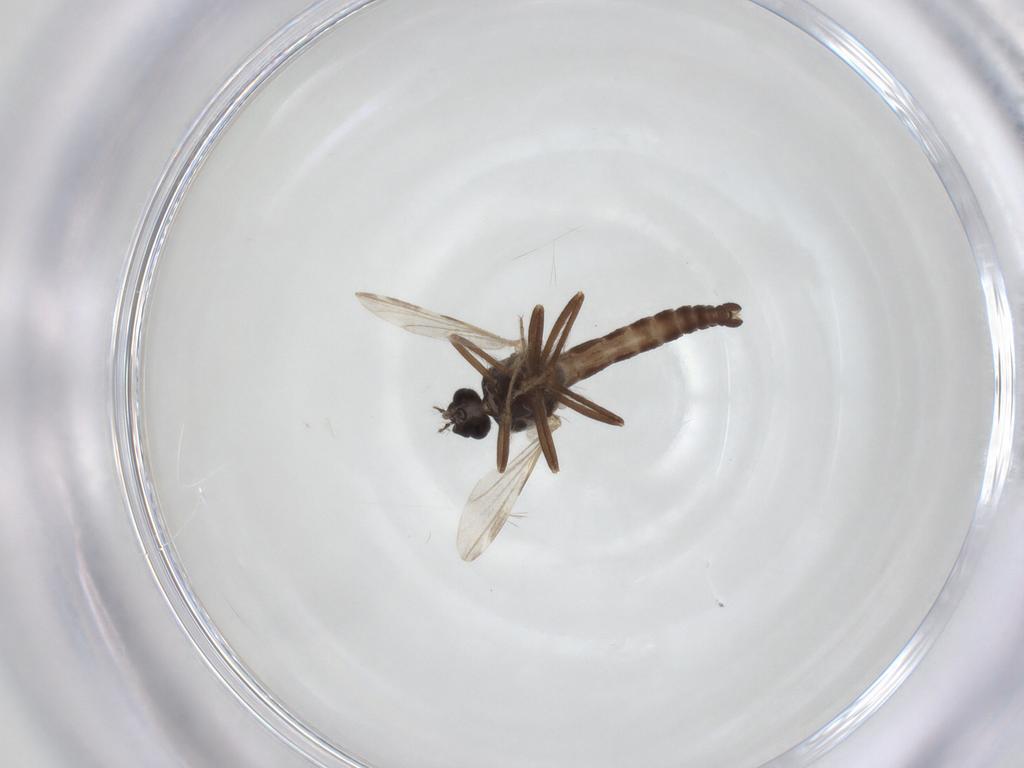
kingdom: Animalia
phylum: Arthropoda
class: Insecta
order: Diptera
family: Ceratopogonidae
